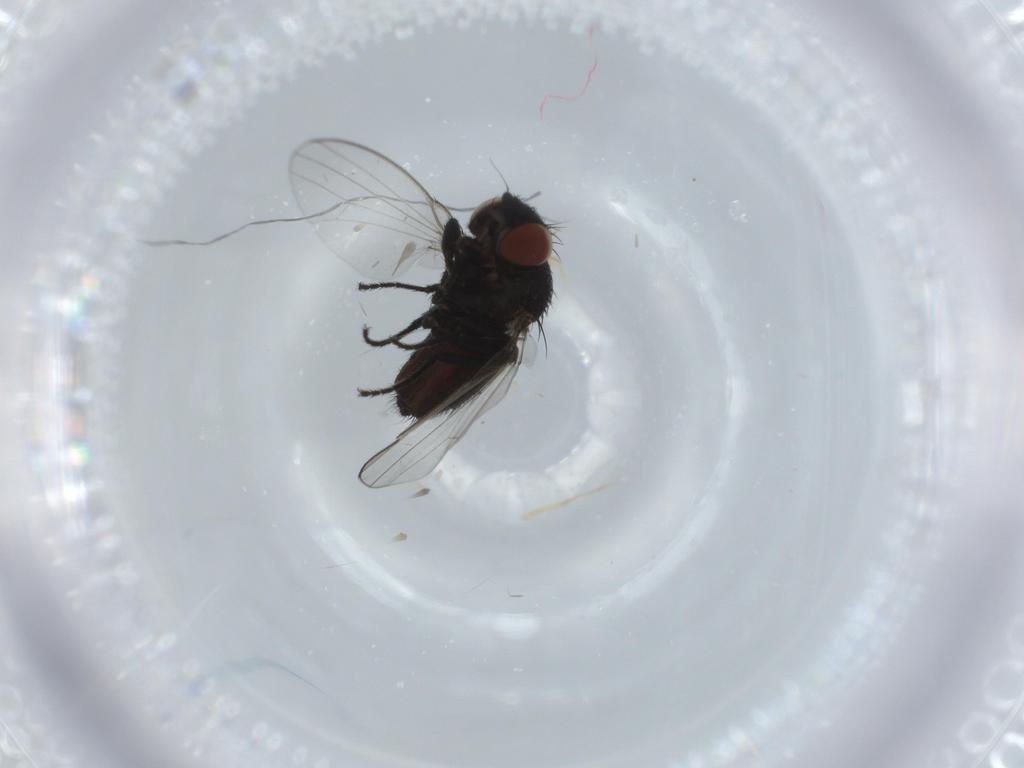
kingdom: Animalia
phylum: Arthropoda
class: Insecta
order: Diptera
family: Milichiidae
